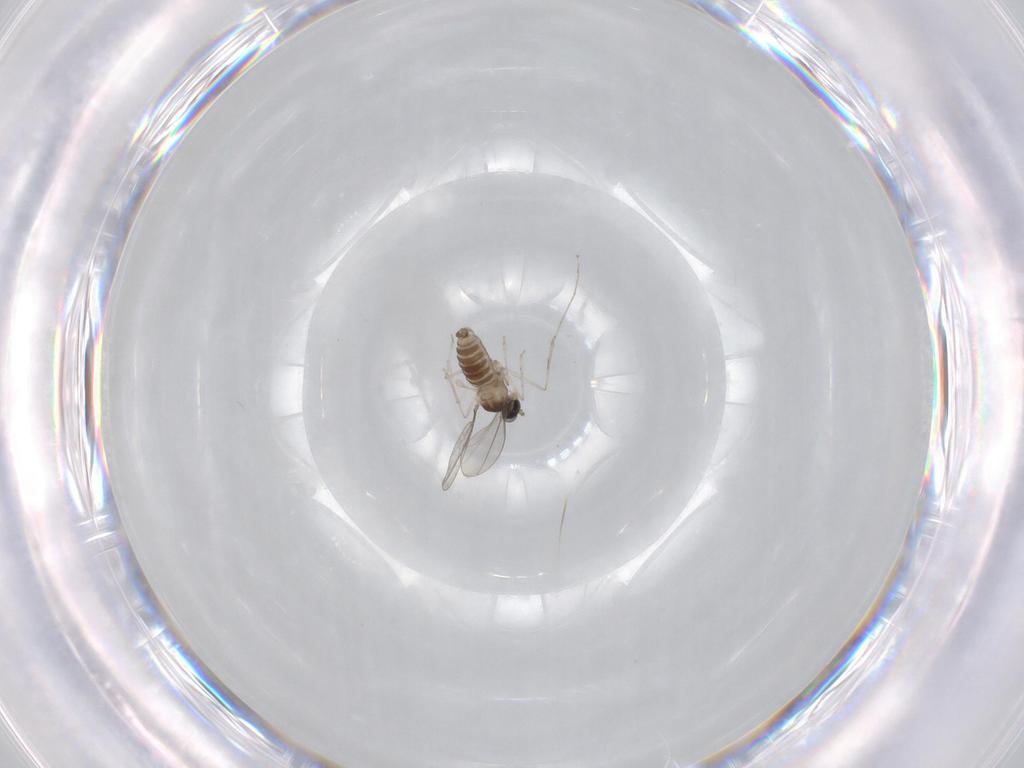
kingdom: Animalia
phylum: Arthropoda
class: Insecta
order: Diptera
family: Cecidomyiidae
